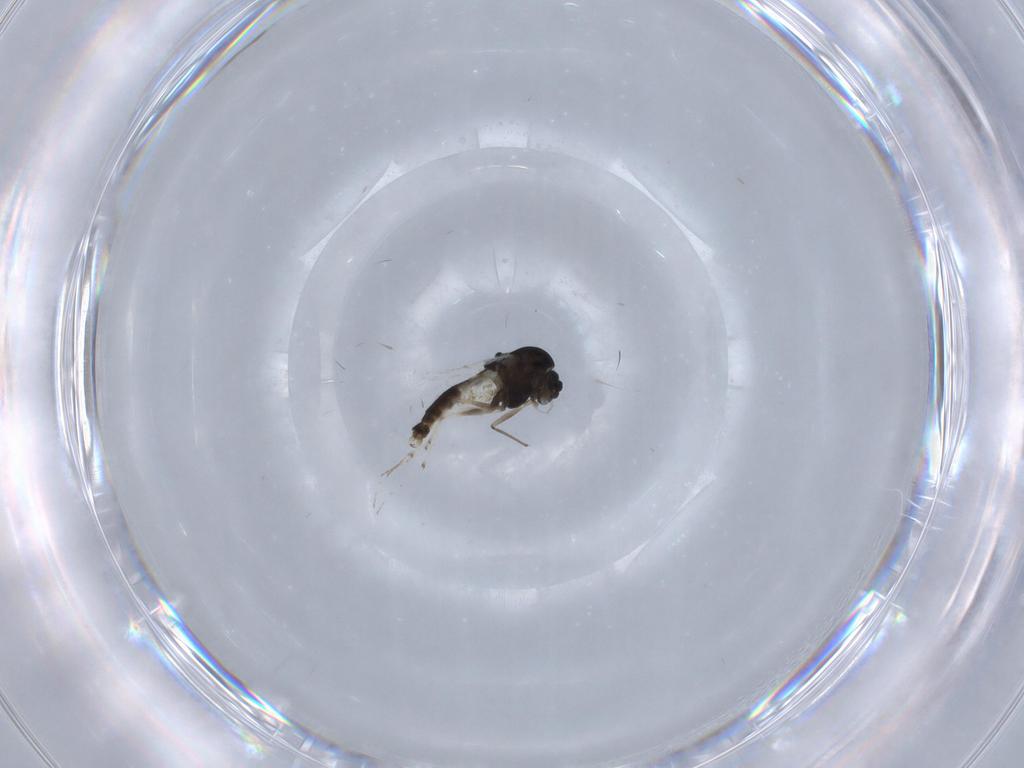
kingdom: Animalia
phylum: Arthropoda
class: Insecta
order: Diptera
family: Chironomidae
